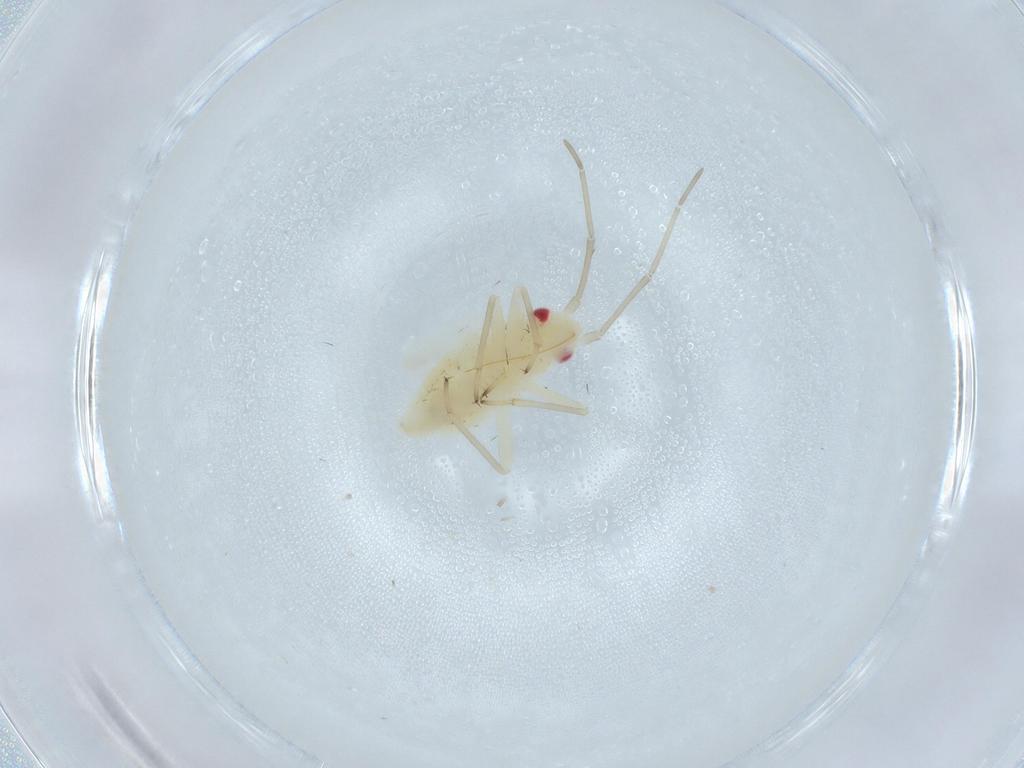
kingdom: Animalia
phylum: Arthropoda
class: Insecta
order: Hemiptera
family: Miridae
